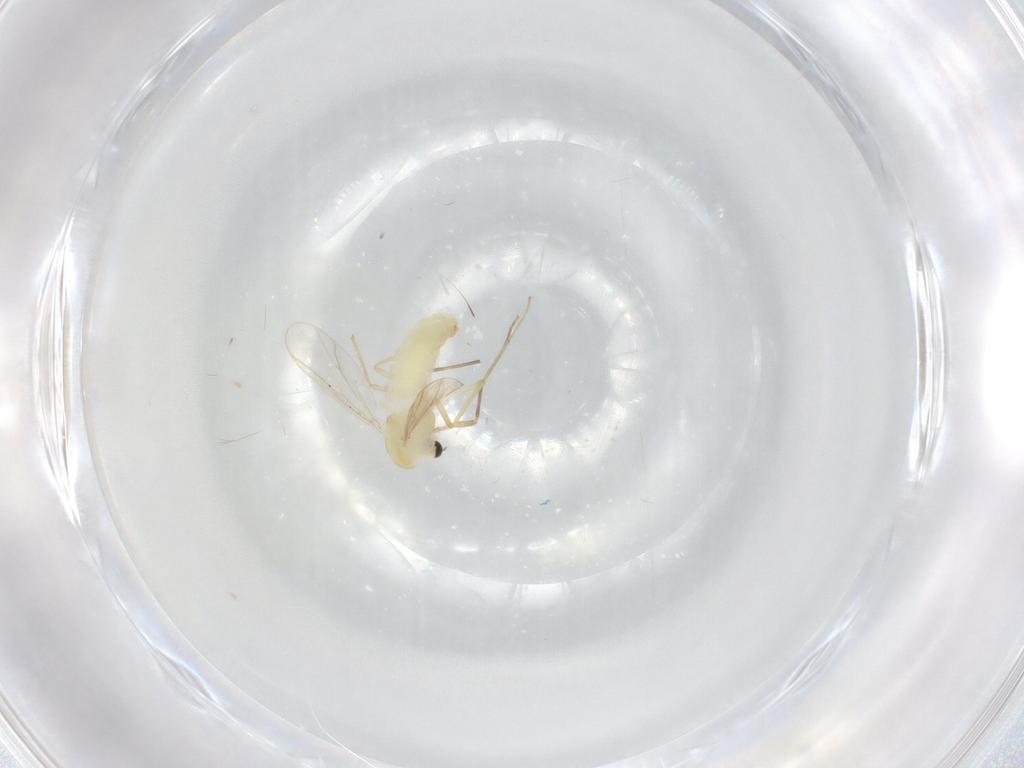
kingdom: Animalia
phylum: Arthropoda
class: Insecta
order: Diptera
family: Chironomidae
